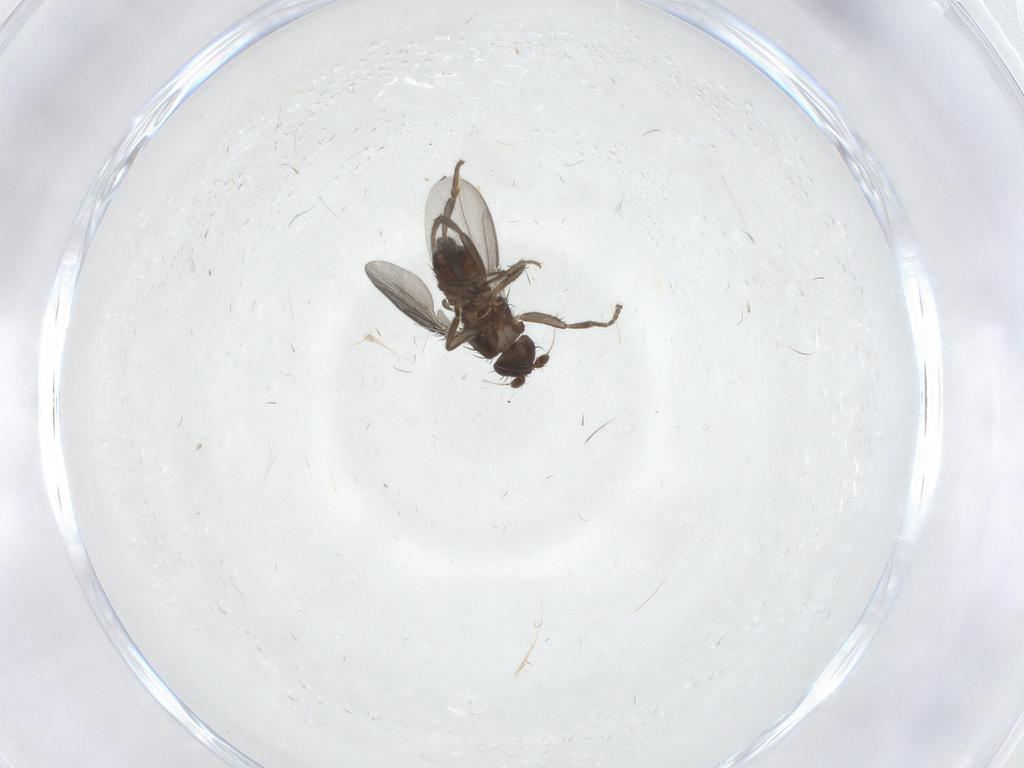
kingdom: Animalia
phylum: Arthropoda
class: Insecta
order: Diptera
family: Sphaeroceridae
